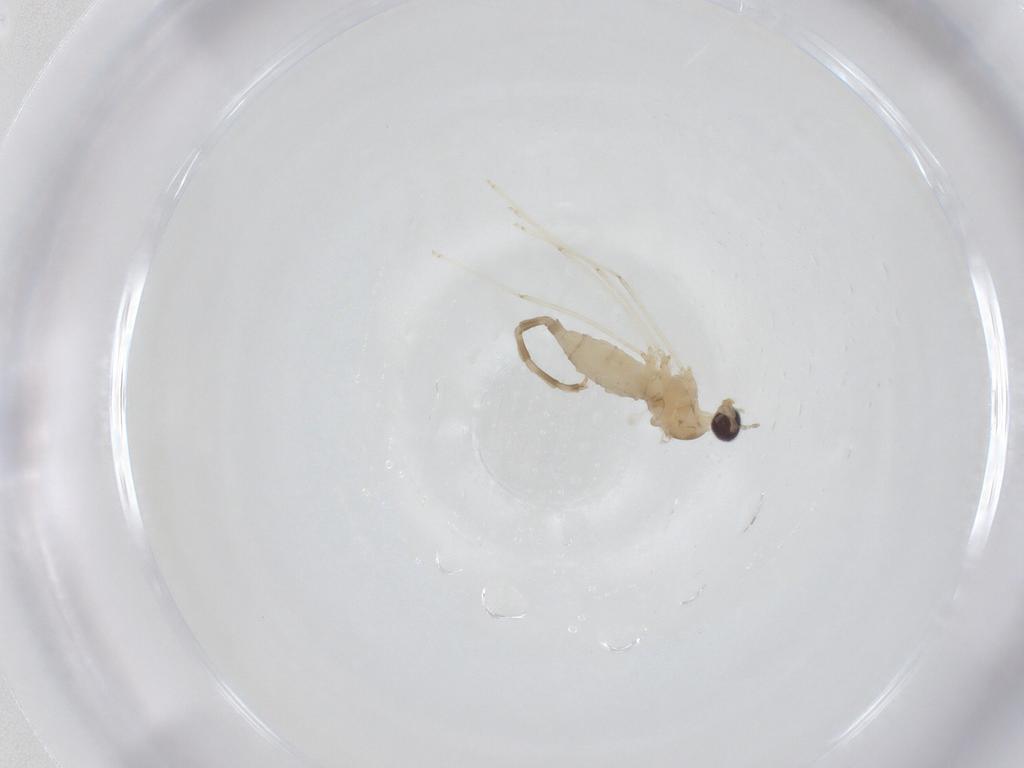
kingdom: Animalia
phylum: Arthropoda
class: Insecta
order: Diptera
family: Cecidomyiidae
